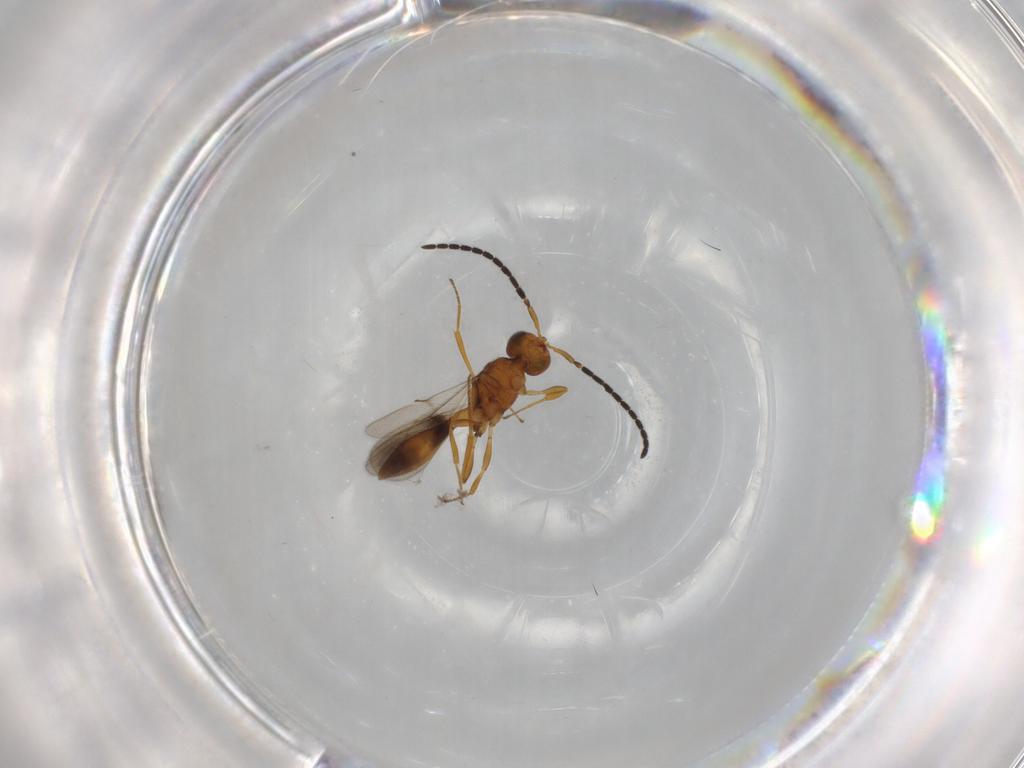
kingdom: Animalia
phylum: Arthropoda
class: Insecta
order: Hymenoptera
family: Scelionidae
